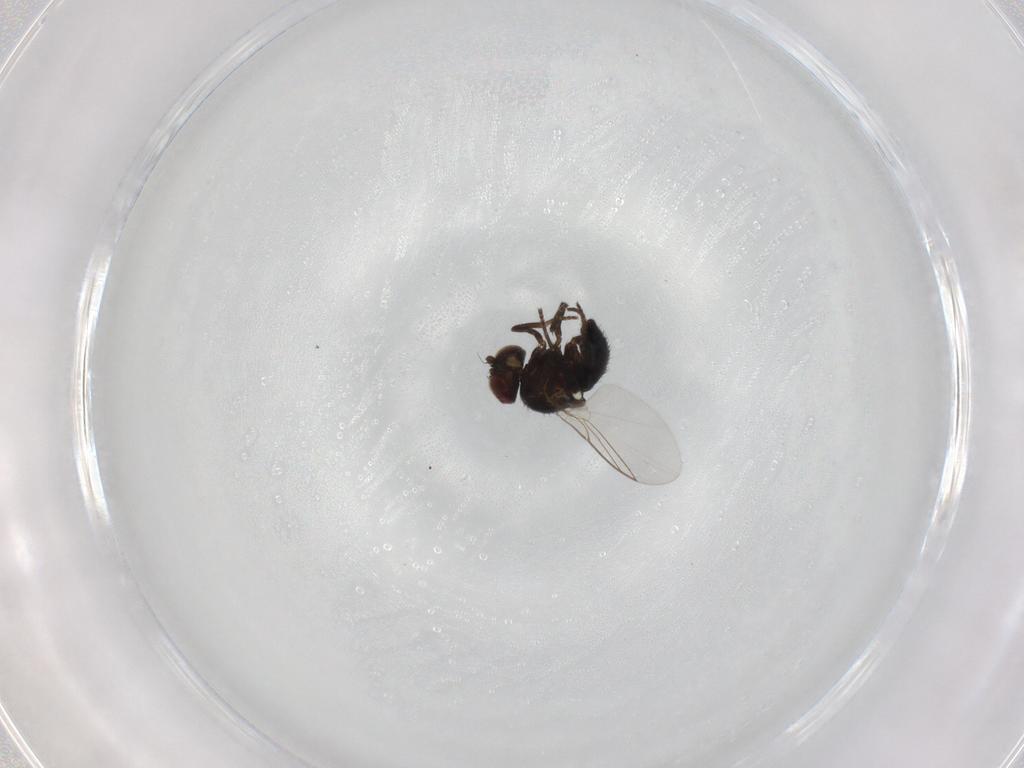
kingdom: Animalia
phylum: Arthropoda
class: Insecta
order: Diptera
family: Agromyzidae
